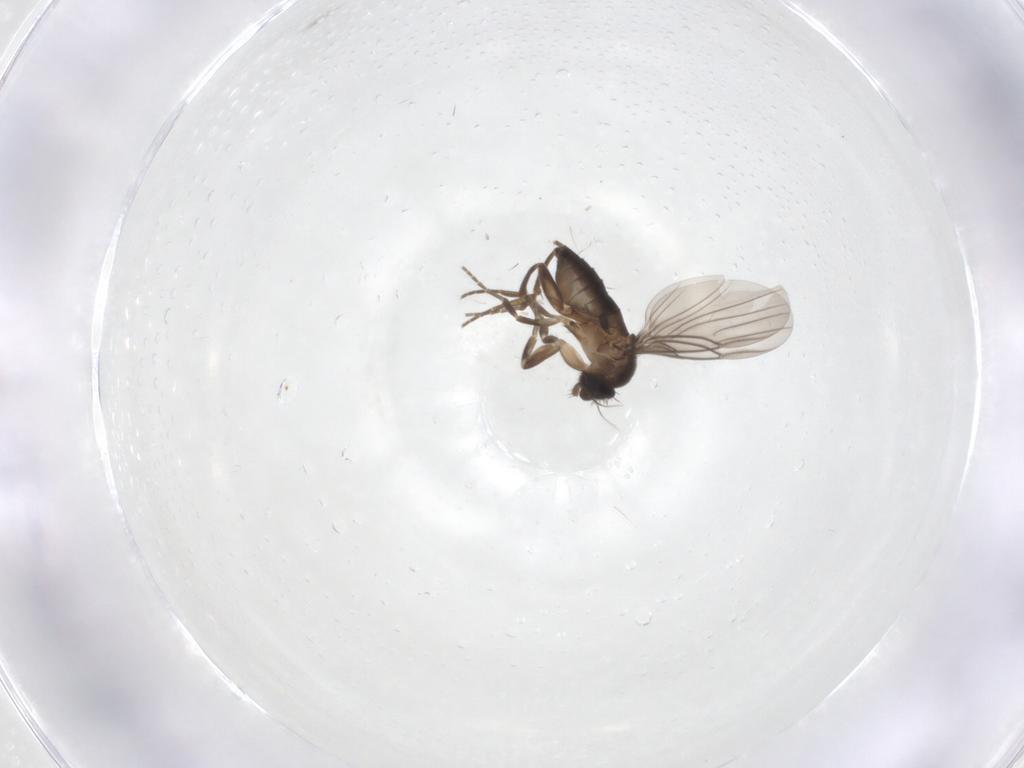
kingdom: Animalia
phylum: Arthropoda
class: Insecta
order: Diptera
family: Phoridae
